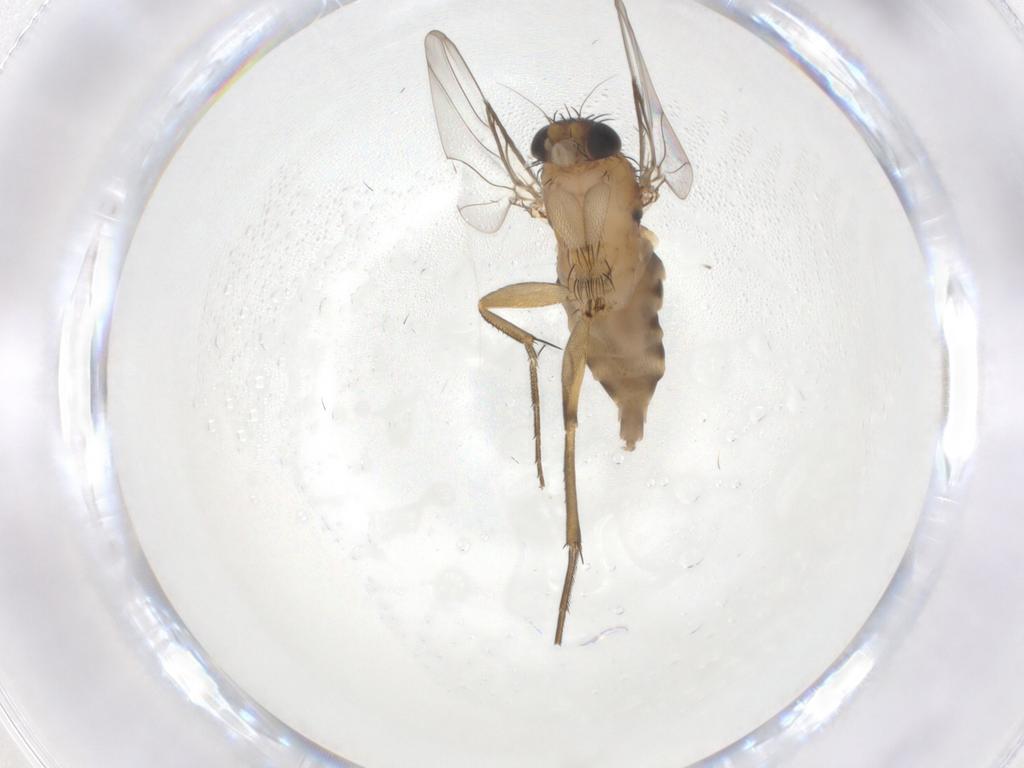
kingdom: Animalia
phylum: Arthropoda
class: Insecta
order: Diptera
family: Phoridae
